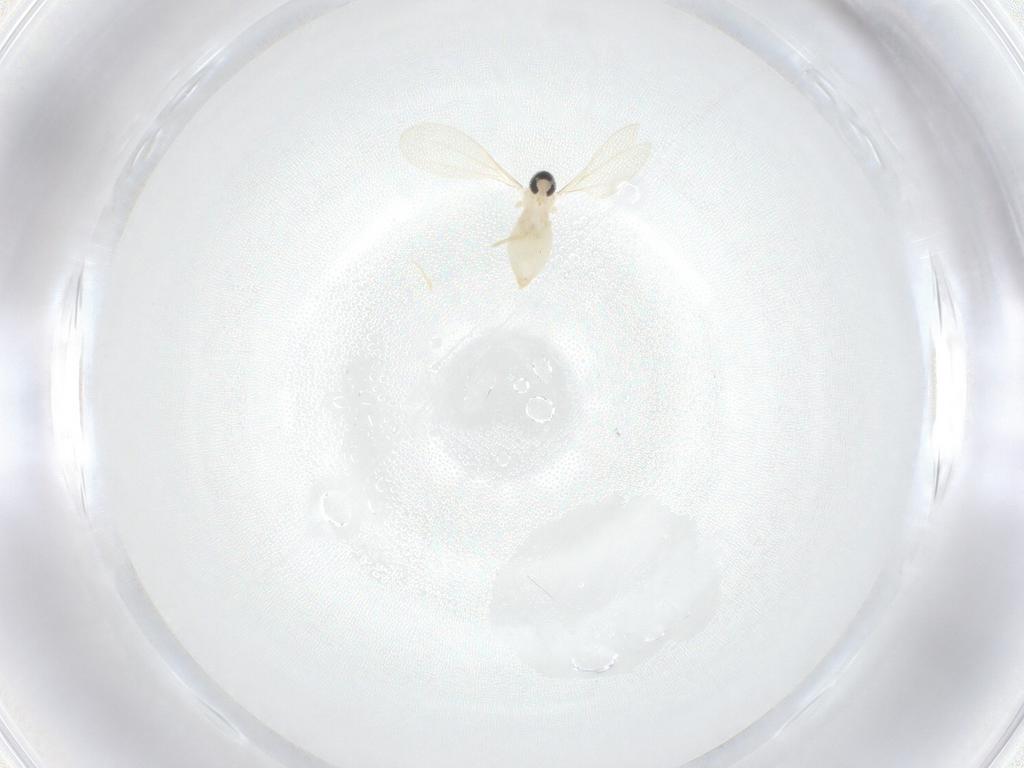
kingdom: Animalia
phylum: Arthropoda
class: Insecta
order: Diptera
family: Cecidomyiidae
